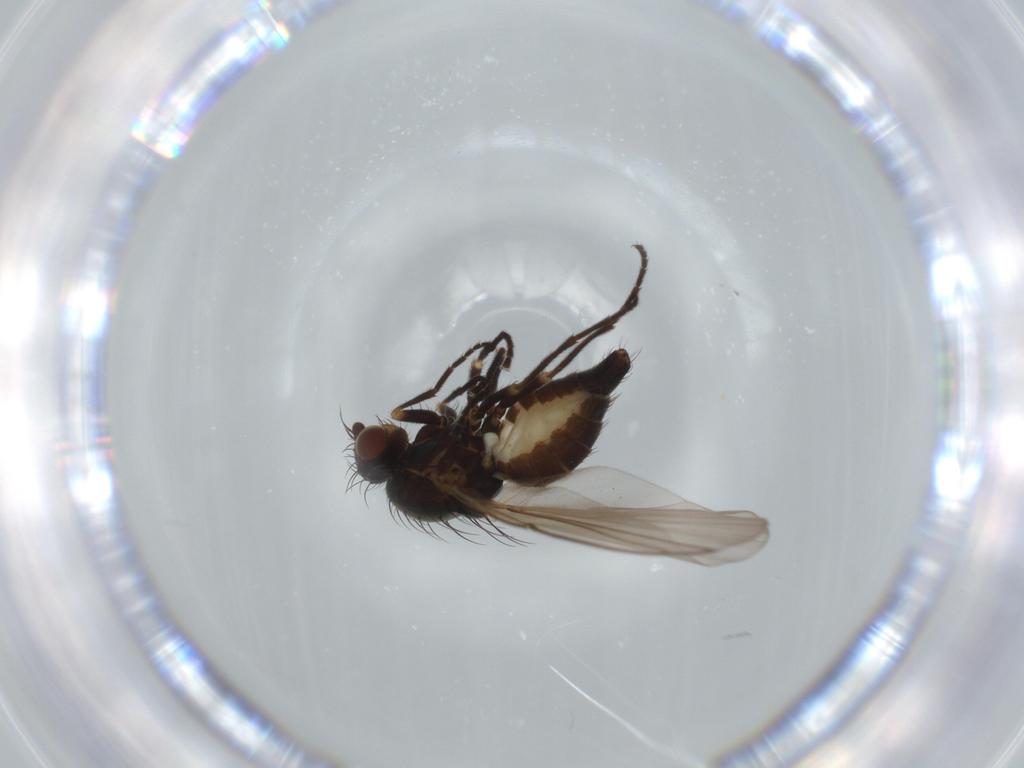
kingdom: Animalia
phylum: Arthropoda
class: Insecta
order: Diptera
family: Agromyzidae
